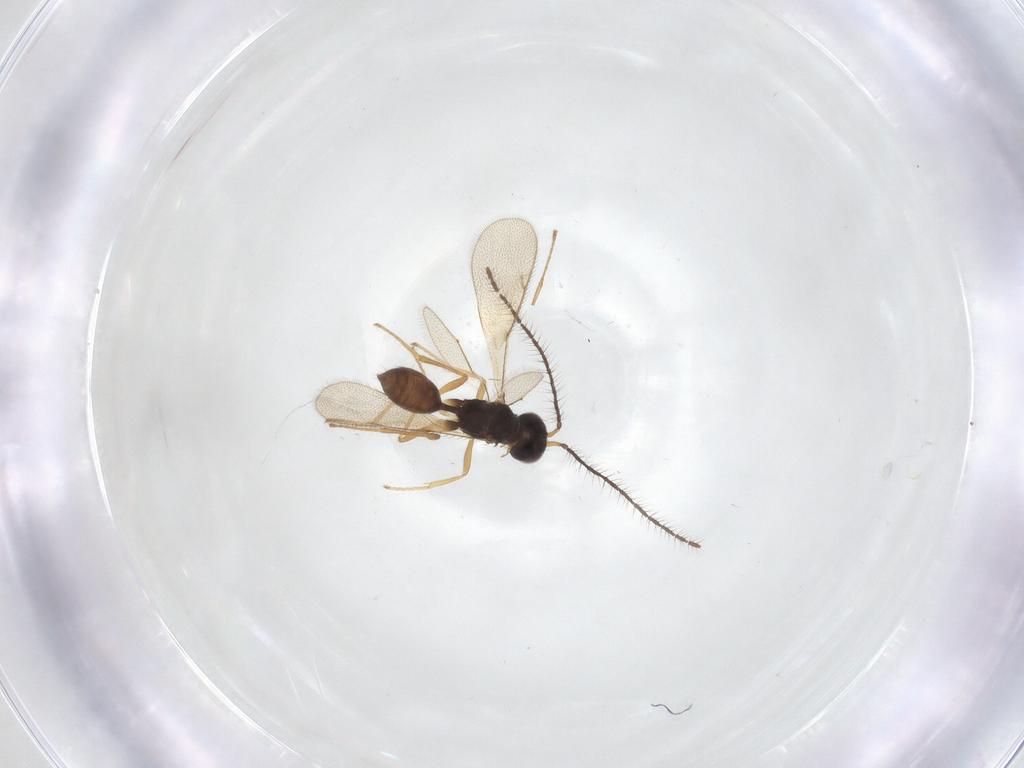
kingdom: Animalia
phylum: Arthropoda
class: Insecta
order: Hymenoptera
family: Diparidae
